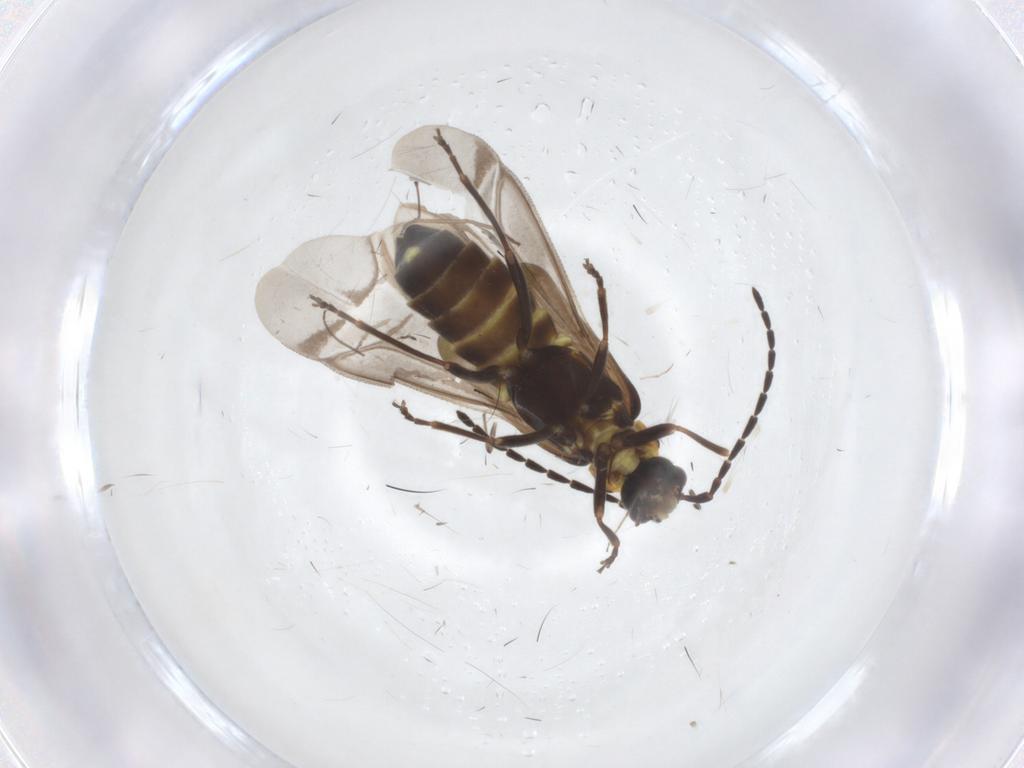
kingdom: Animalia
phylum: Arthropoda
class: Insecta
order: Coleoptera
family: Cantharidae
